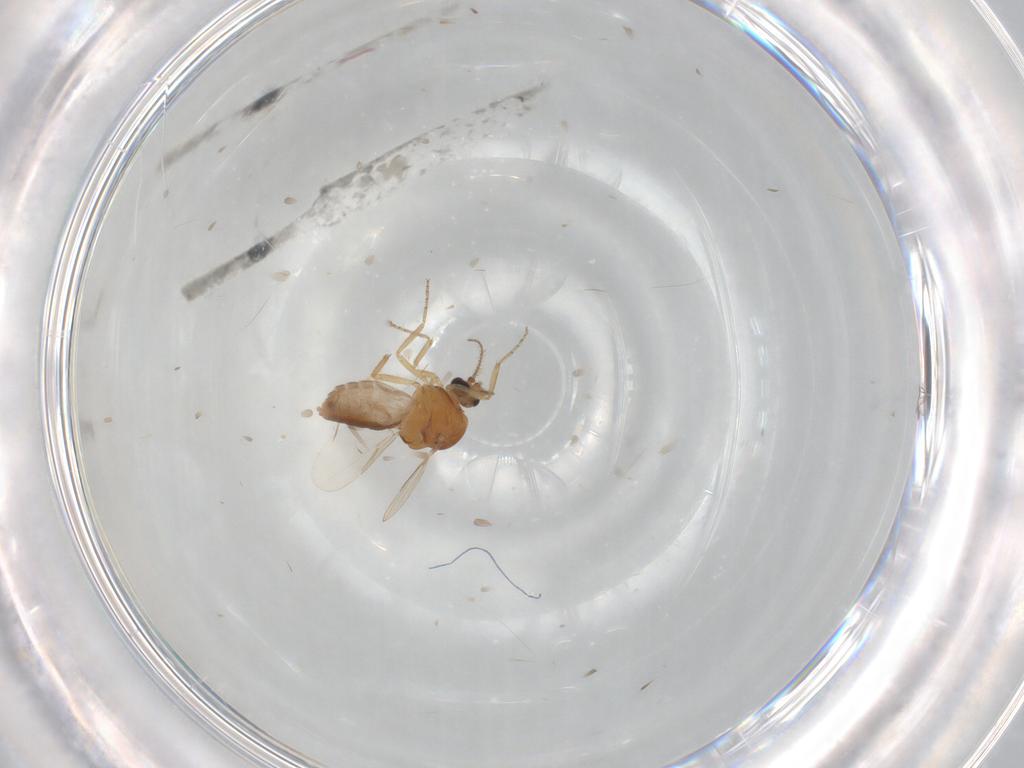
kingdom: Animalia
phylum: Arthropoda
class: Insecta
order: Diptera
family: Ceratopogonidae
